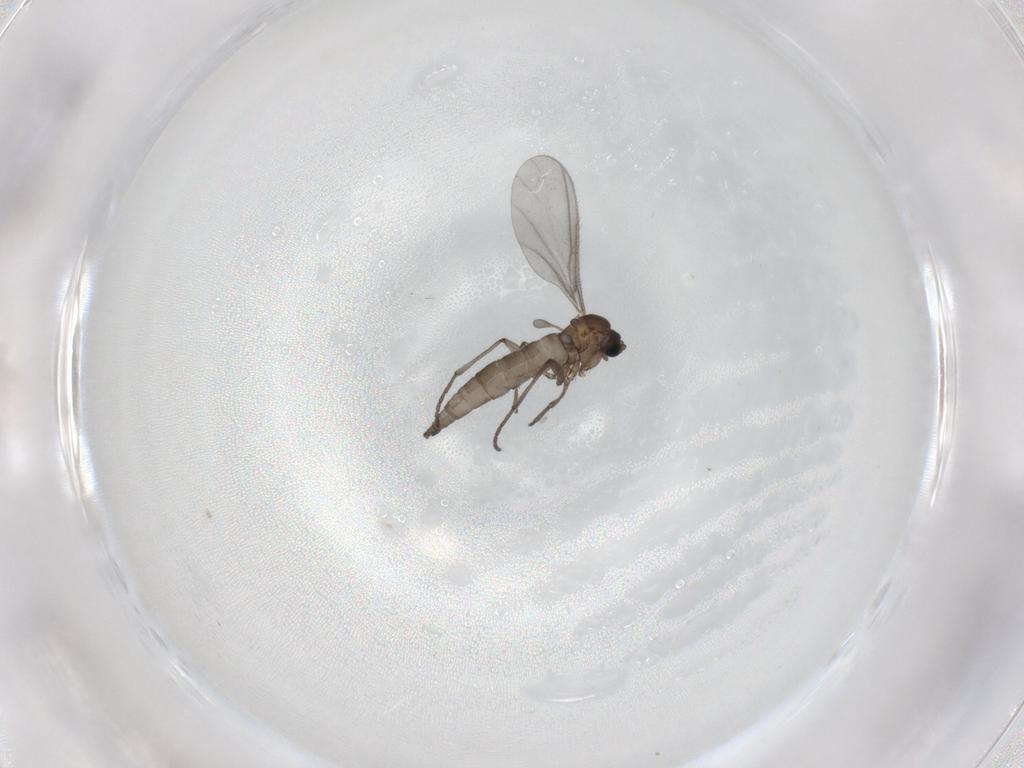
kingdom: Animalia
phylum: Arthropoda
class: Insecta
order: Diptera
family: Sciaridae
